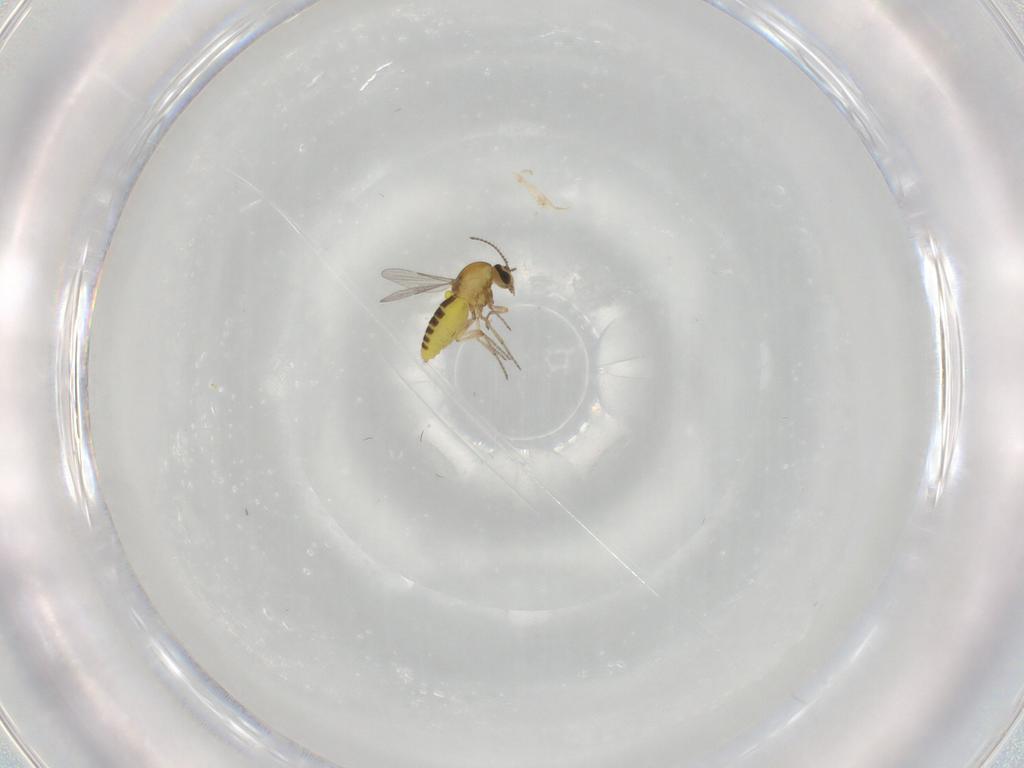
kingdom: Animalia
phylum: Arthropoda
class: Insecta
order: Diptera
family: Ceratopogonidae
